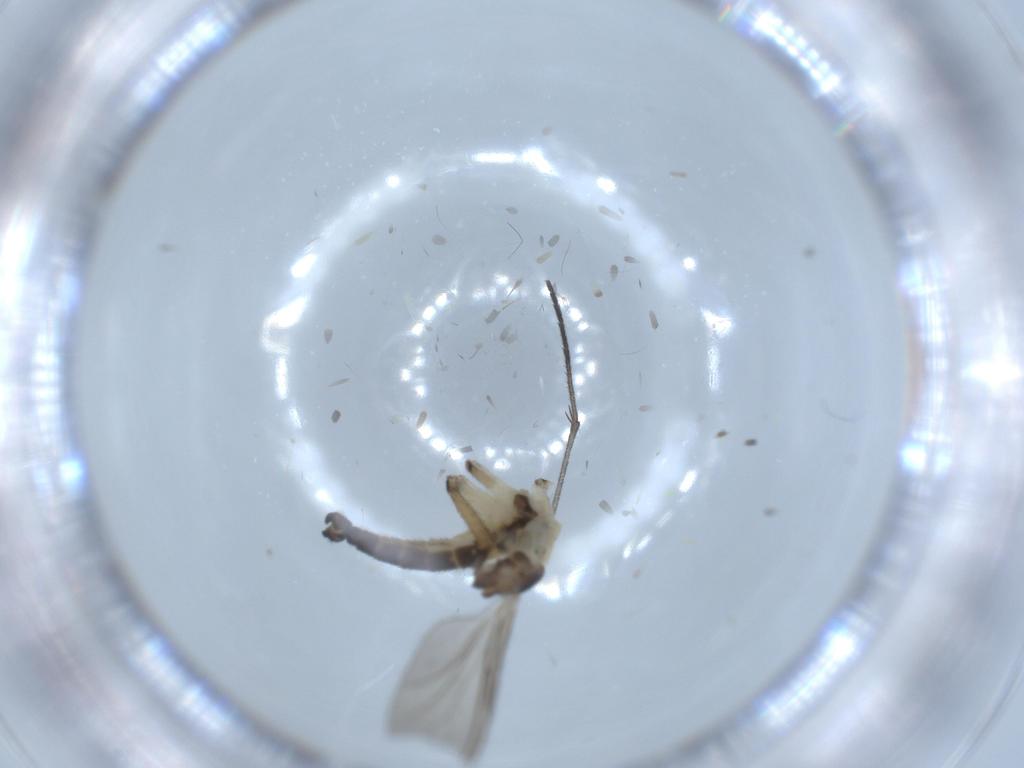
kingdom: Animalia
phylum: Arthropoda
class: Insecta
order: Diptera
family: Sciaridae
